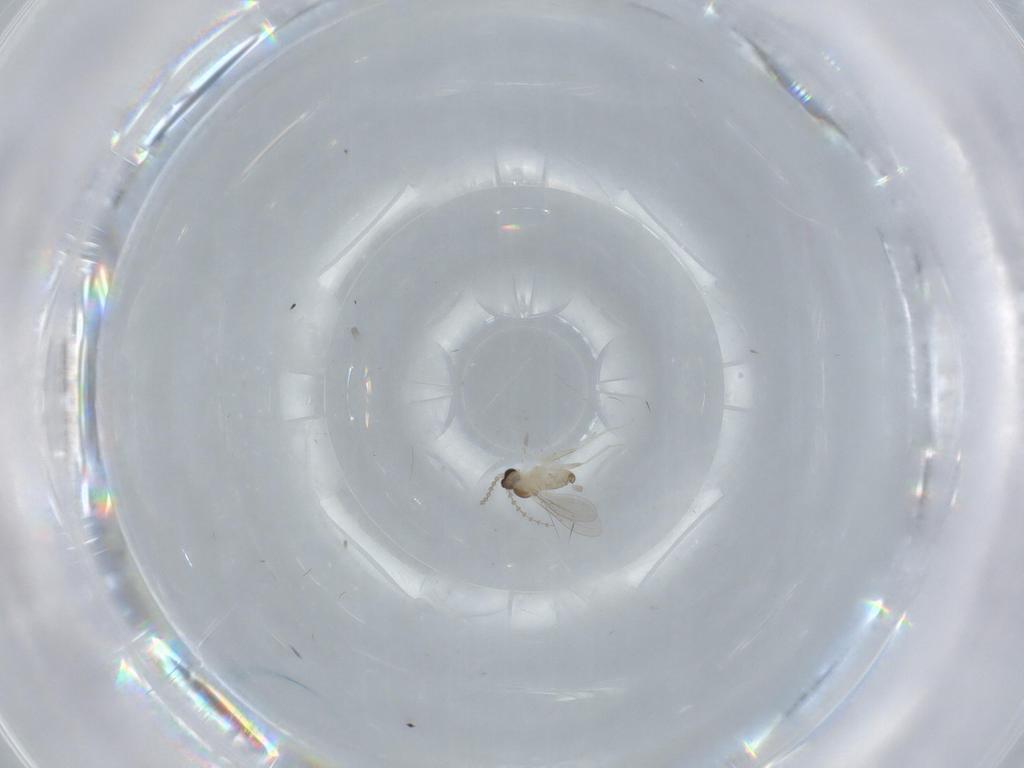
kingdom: Animalia
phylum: Arthropoda
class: Insecta
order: Diptera
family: Cecidomyiidae
